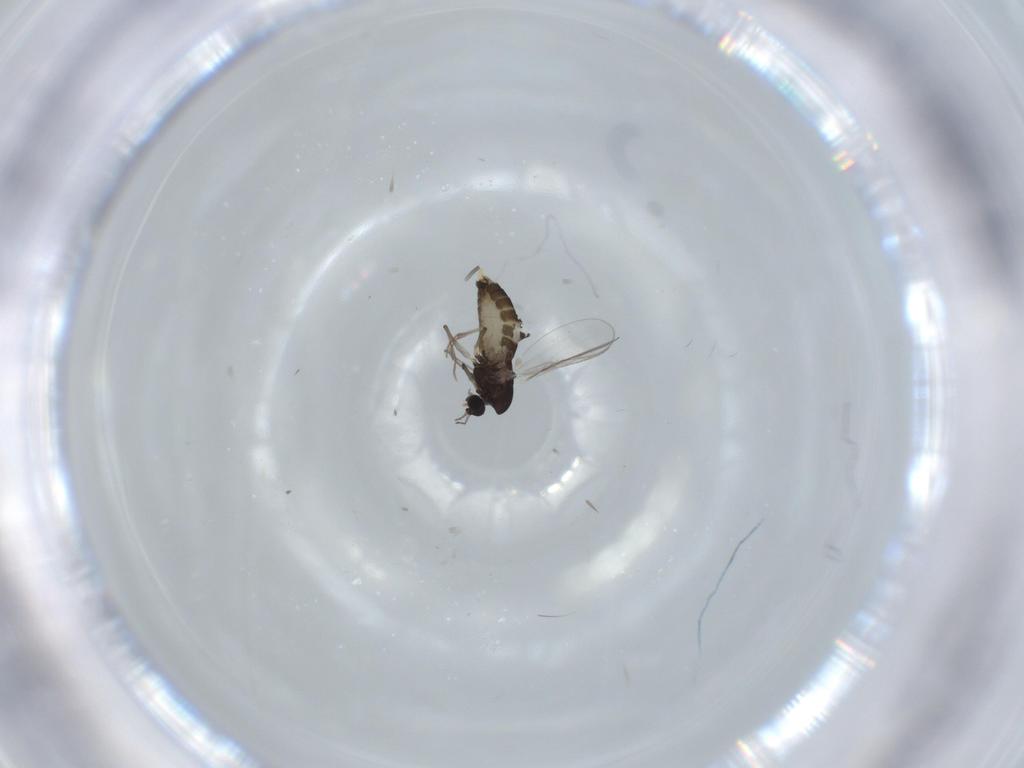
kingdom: Animalia
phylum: Arthropoda
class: Insecta
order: Diptera
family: Chironomidae
